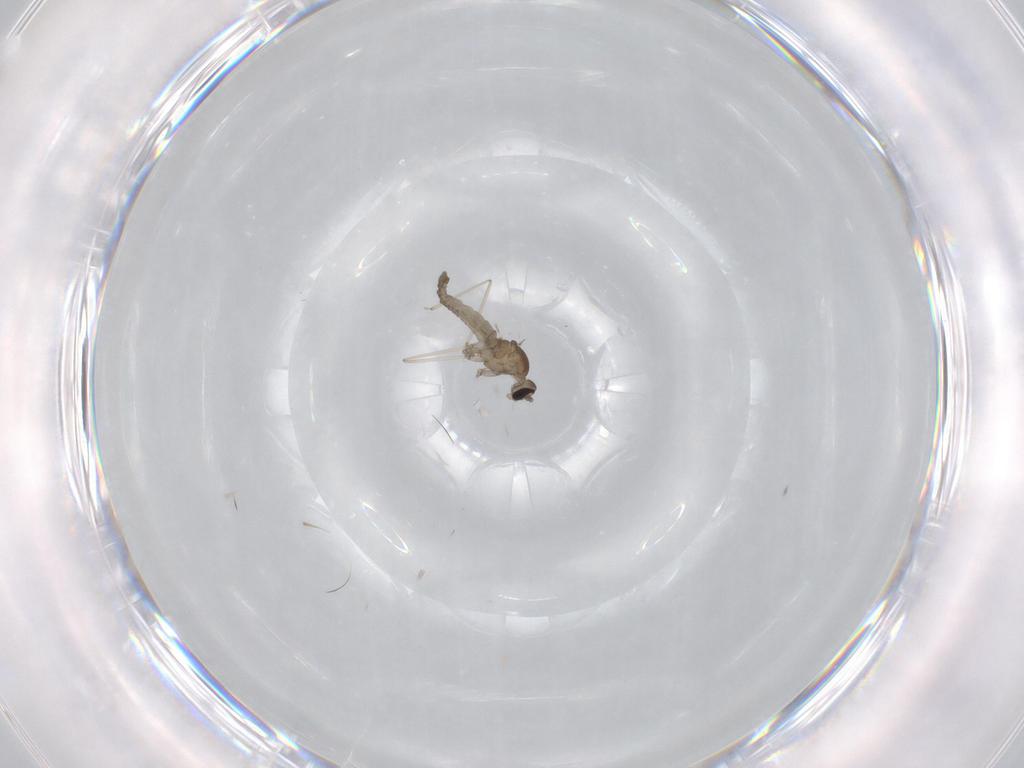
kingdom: Animalia
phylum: Arthropoda
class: Insecta
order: Diptera
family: Cecidomyiidae
